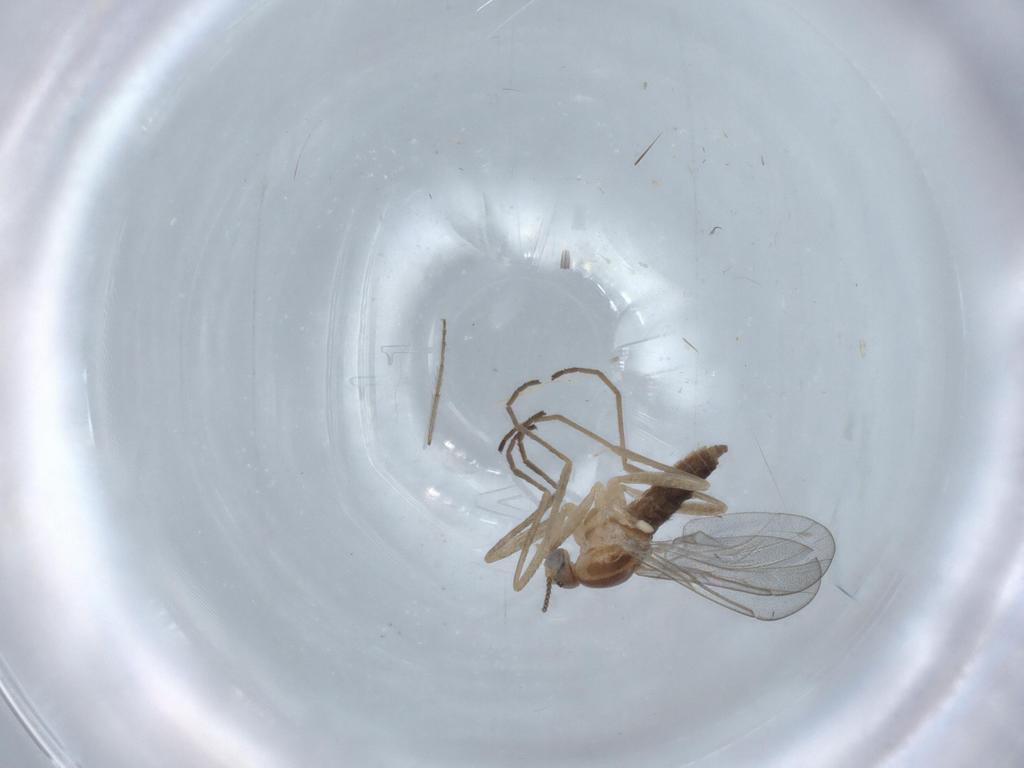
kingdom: Animalia
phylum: Arthropoda
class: Insecta
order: Diptera
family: Cecidomyiidae
